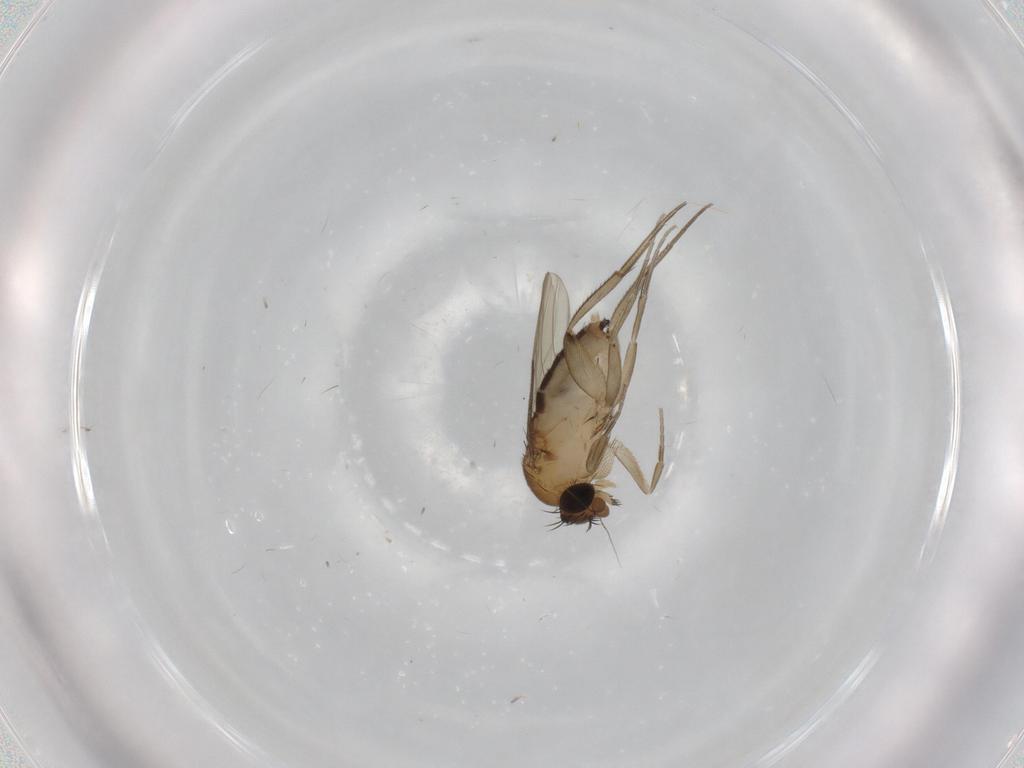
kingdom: Animalia
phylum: Arthropoda
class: Insecta
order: Diptera
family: Phoridae
